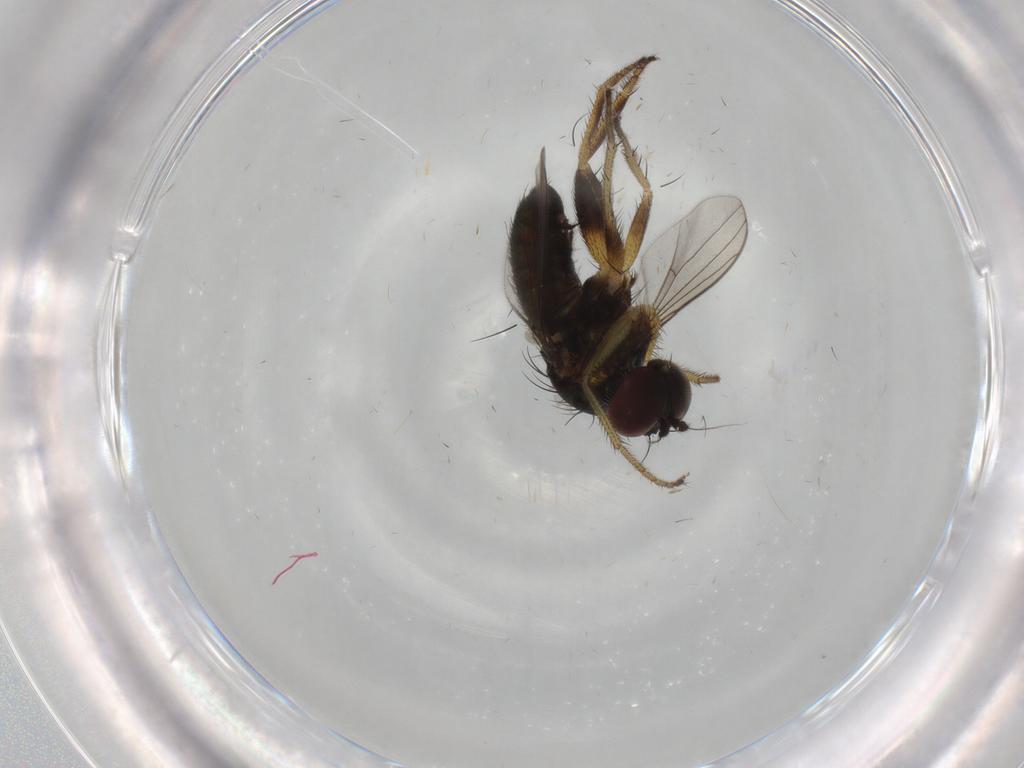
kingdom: Animalia
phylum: Arthropoda
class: Insecta
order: Diptera
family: Dolichopodidae
